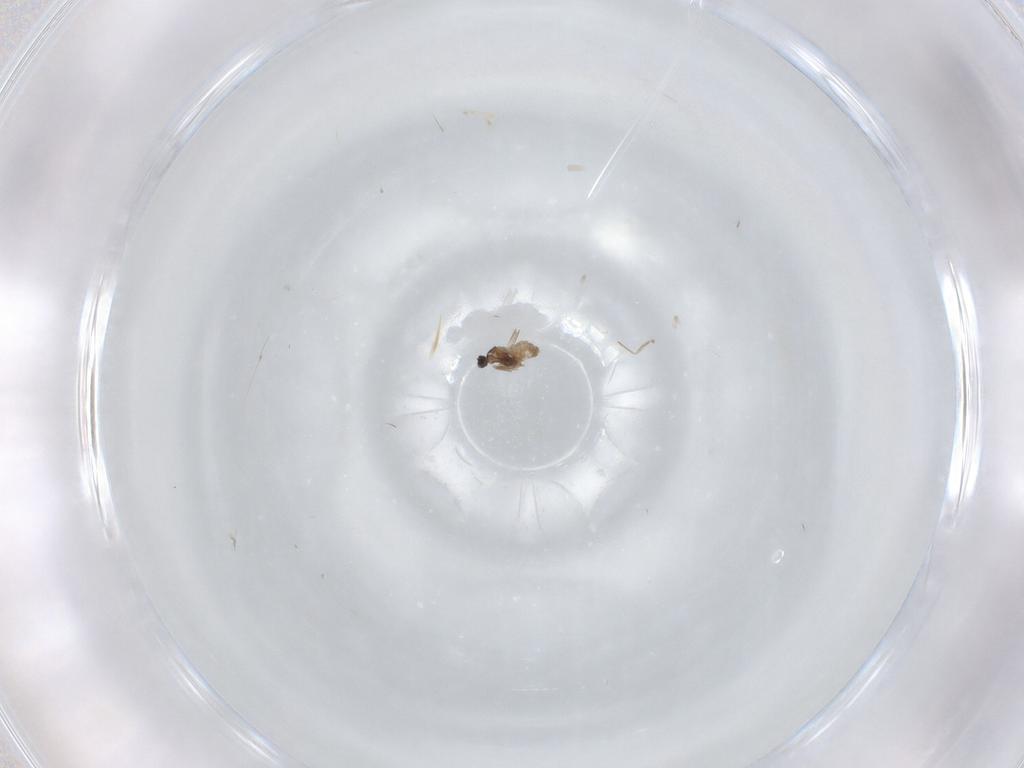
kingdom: Animalia
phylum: Arthropoda
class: Insecta
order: Diptera
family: Cecidomyiidae
